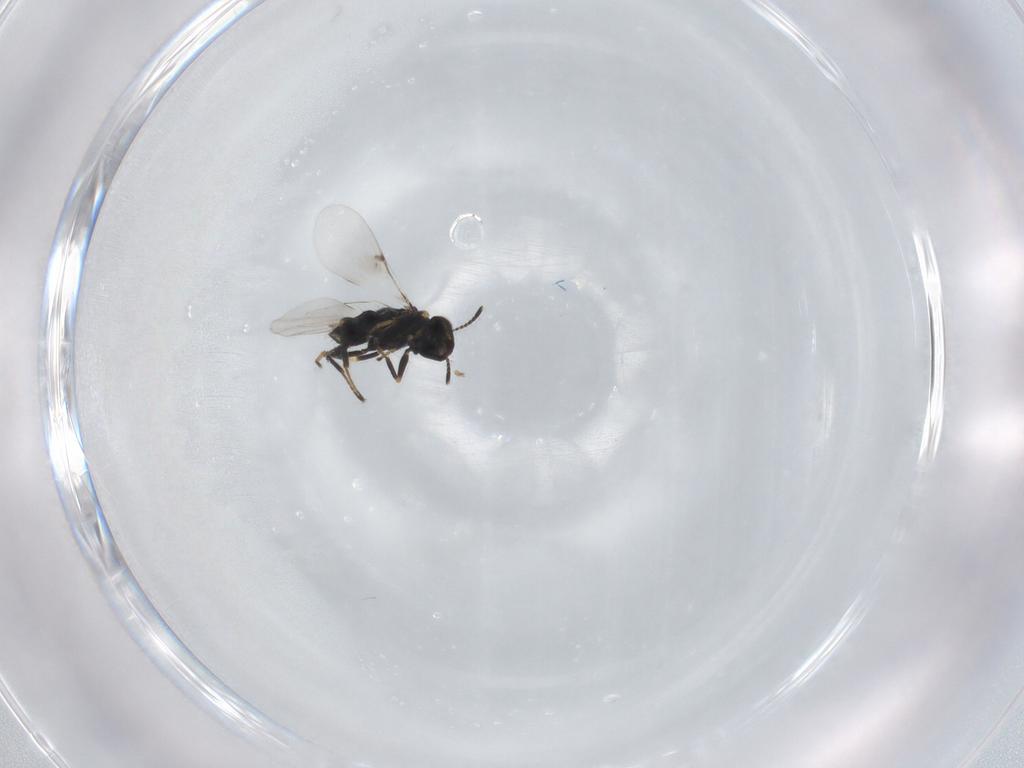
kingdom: Animalia
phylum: Arthropoda
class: Insecta
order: Hymenoptera
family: Encyrtidae
